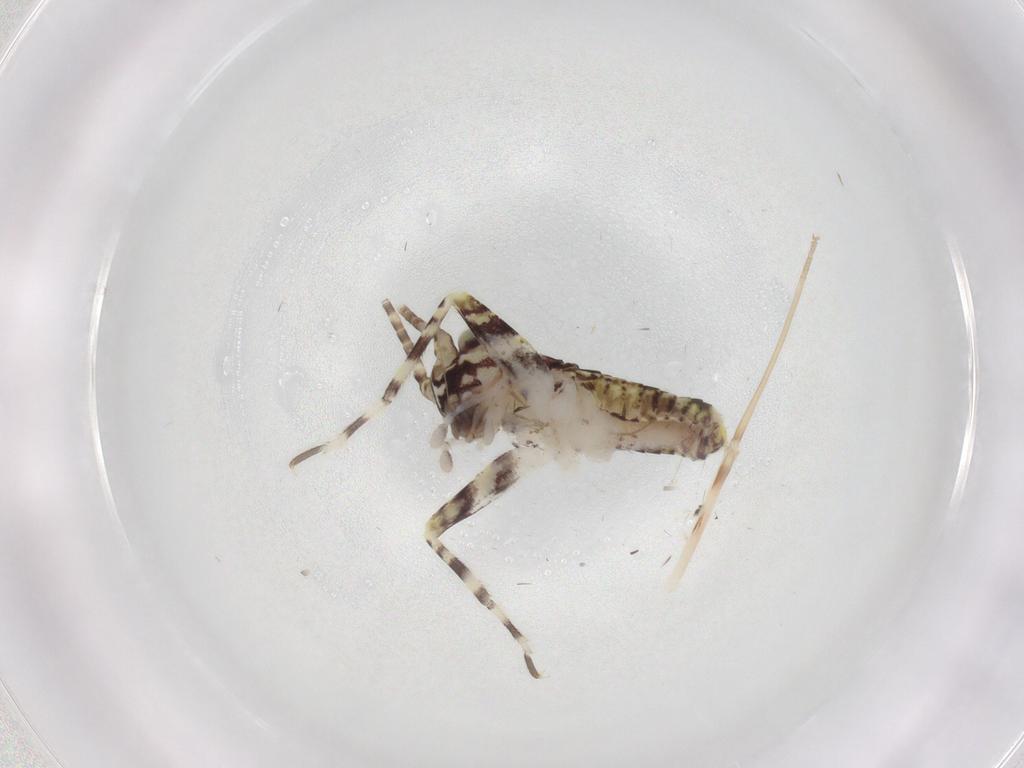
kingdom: Animalia
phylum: Arthropoda
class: Insecta
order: Orthoptera
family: Gryllidae
